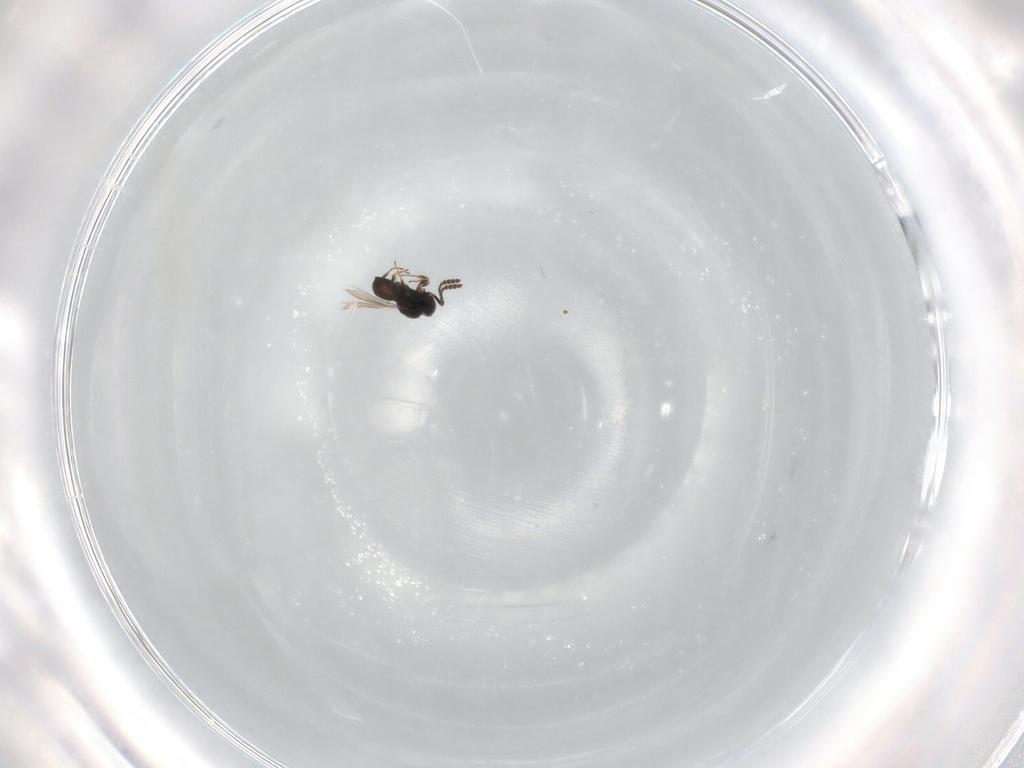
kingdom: Animalia
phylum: Arthropoda
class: Insecta
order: Hymenoptera
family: Scelionidae
